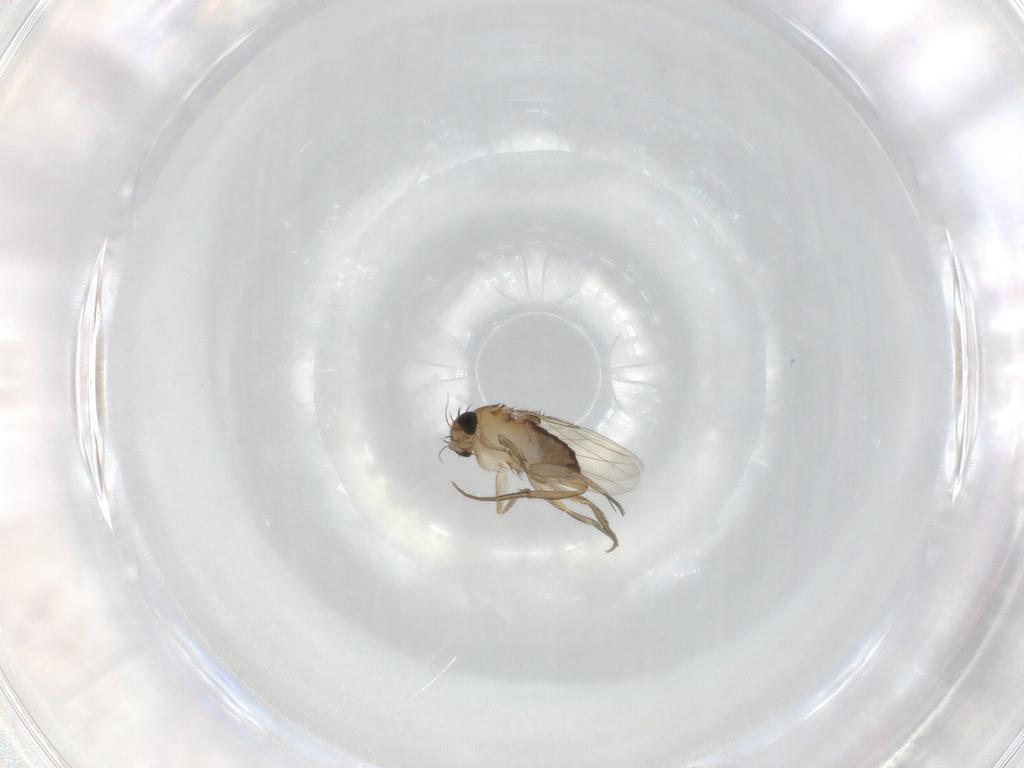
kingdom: Animalia
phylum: Arthropoda
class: Insecta
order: Diptera
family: Phoridae
